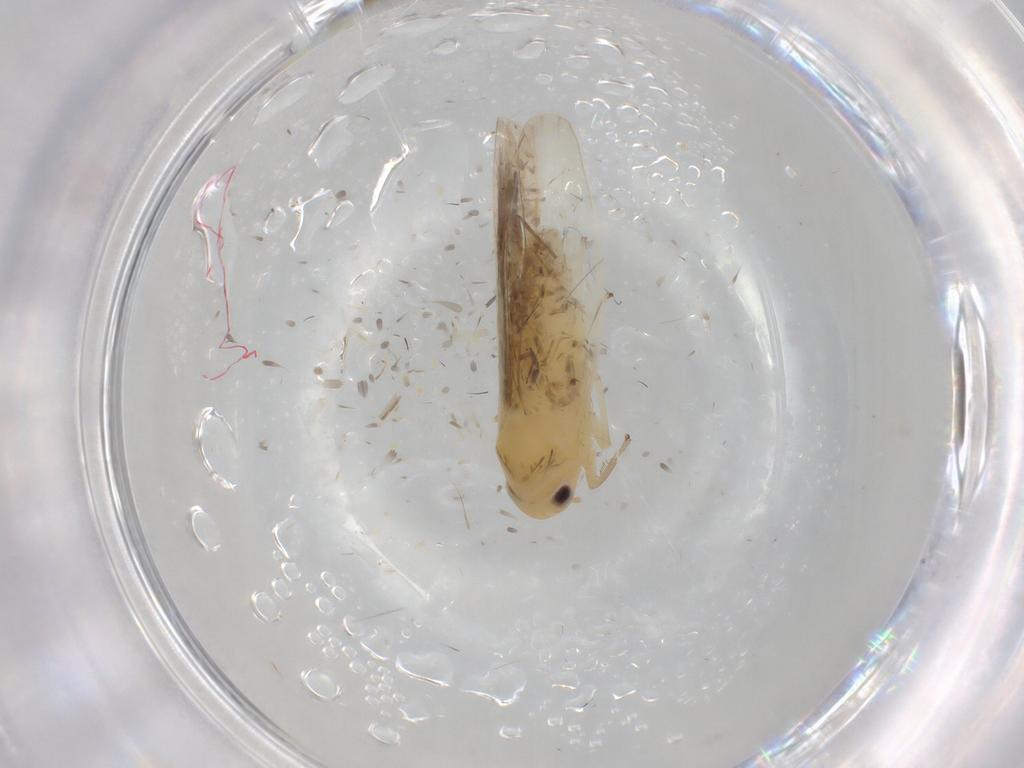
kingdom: Animalia
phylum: Arthropoda
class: Insecta
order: Hemiptera
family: Cicadellidae
